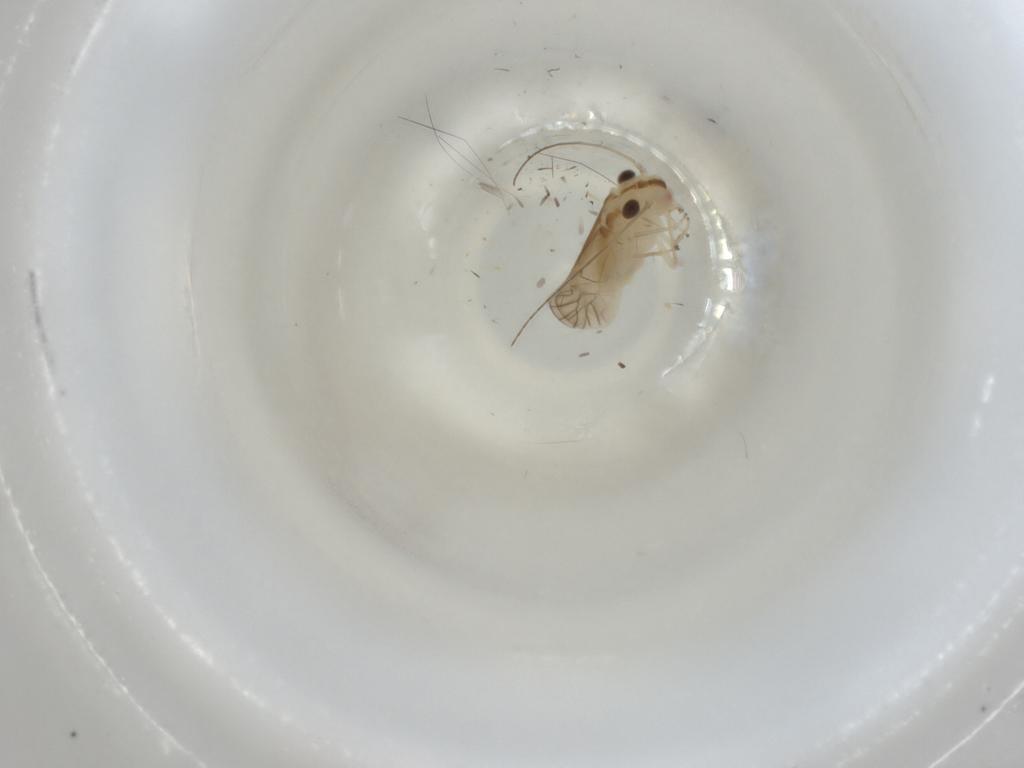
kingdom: Animalia
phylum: Arthropoda
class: Insecta
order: Psocodea
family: Caeciliusidae
